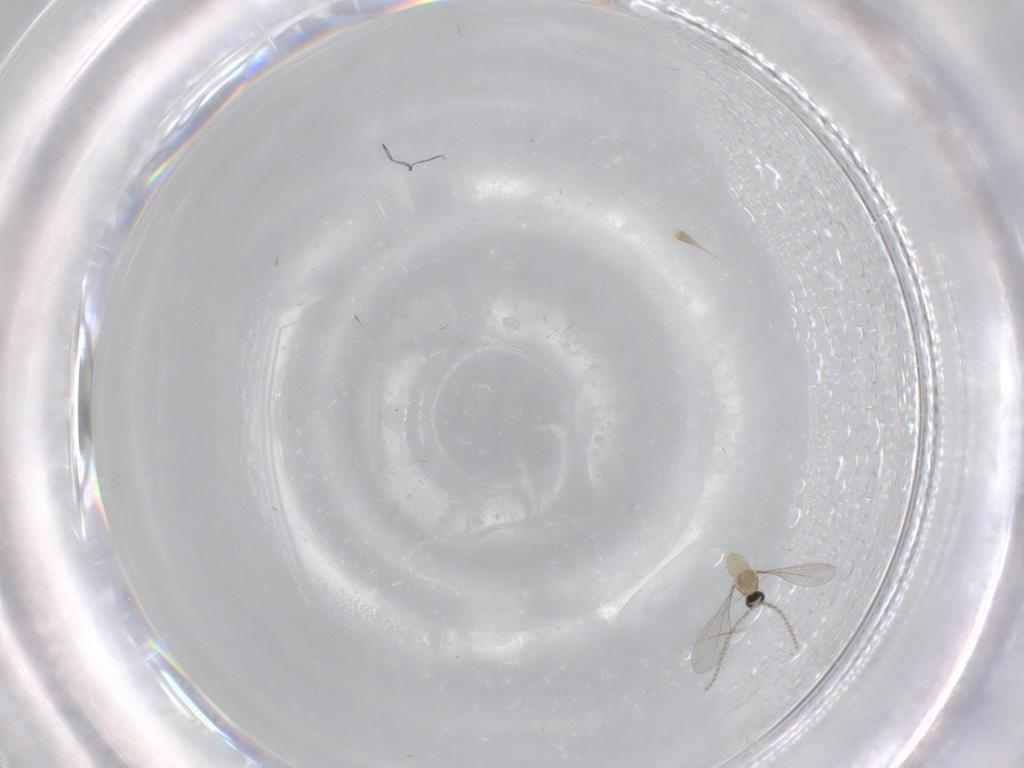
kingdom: Animalia
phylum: Arthropoda
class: Insecta
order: Diptera
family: Cecidomyiidae
